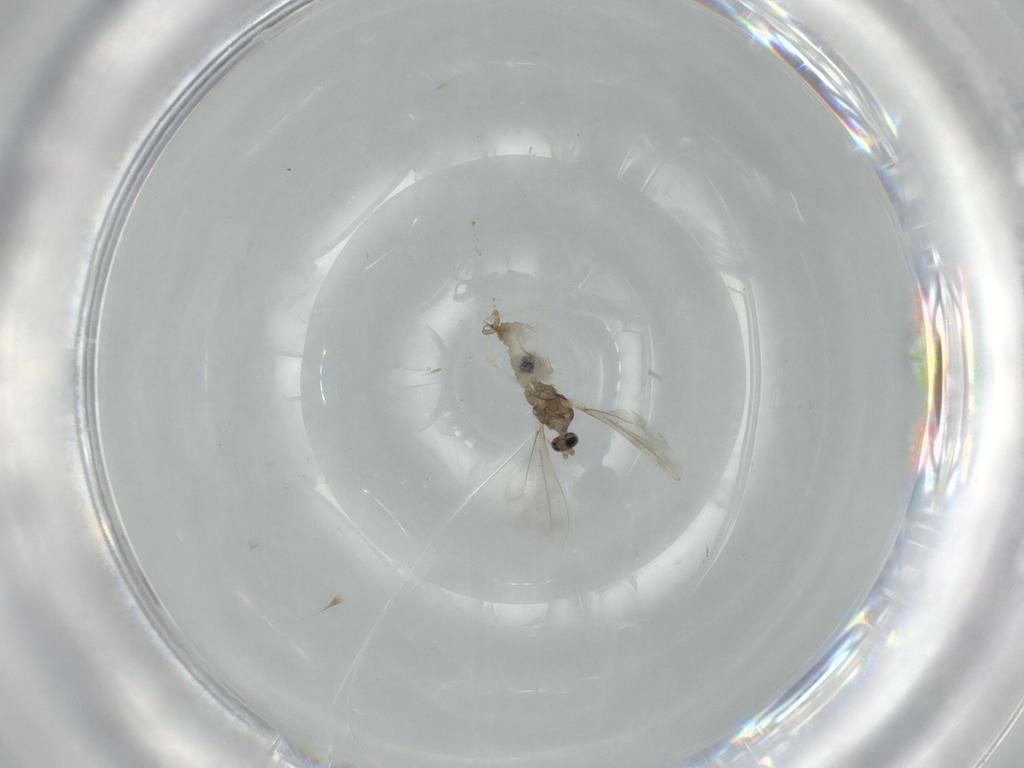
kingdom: Animalia
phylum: Arthropoda
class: Insecta
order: Diptera
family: Cecidomyiidae
